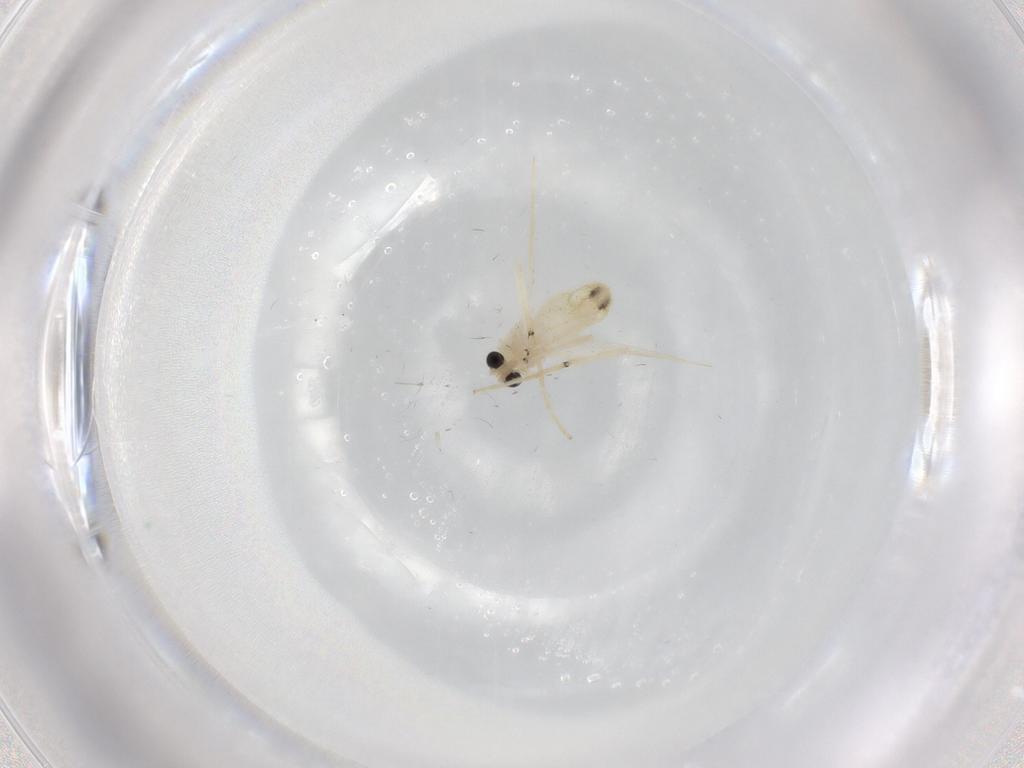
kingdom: Animalia
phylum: Arthropoda
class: Insecta
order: Diptera
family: Chironomidae
